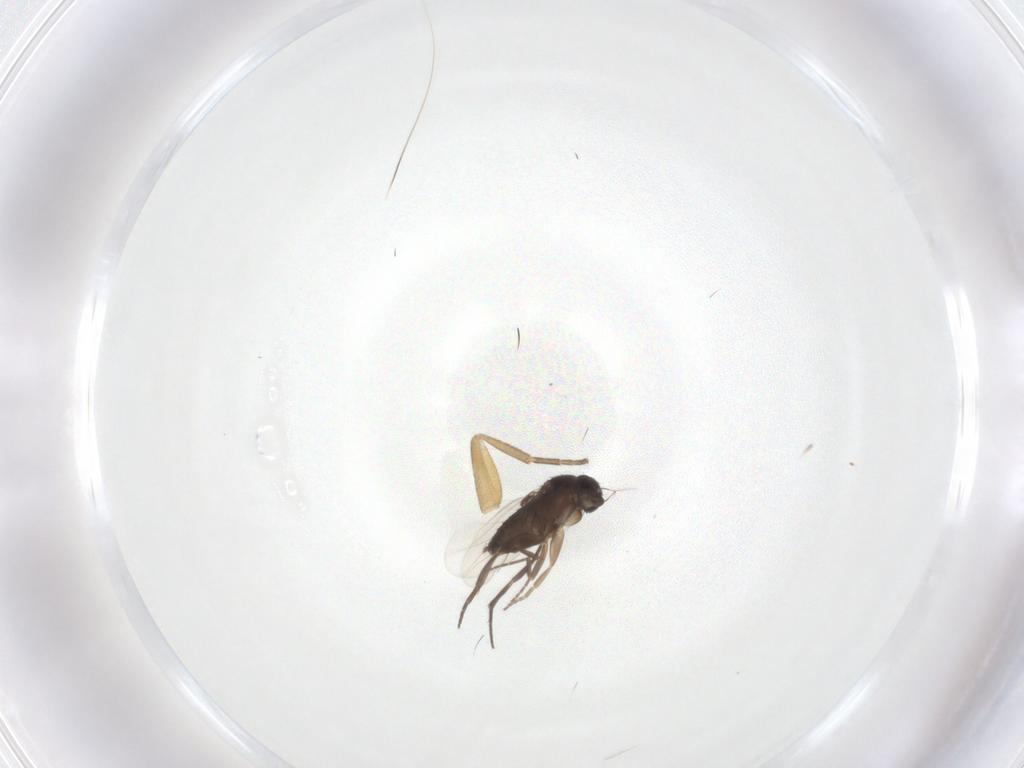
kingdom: Animalia
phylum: Arthropoda
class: Insecta
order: Diptera
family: Phoridae
